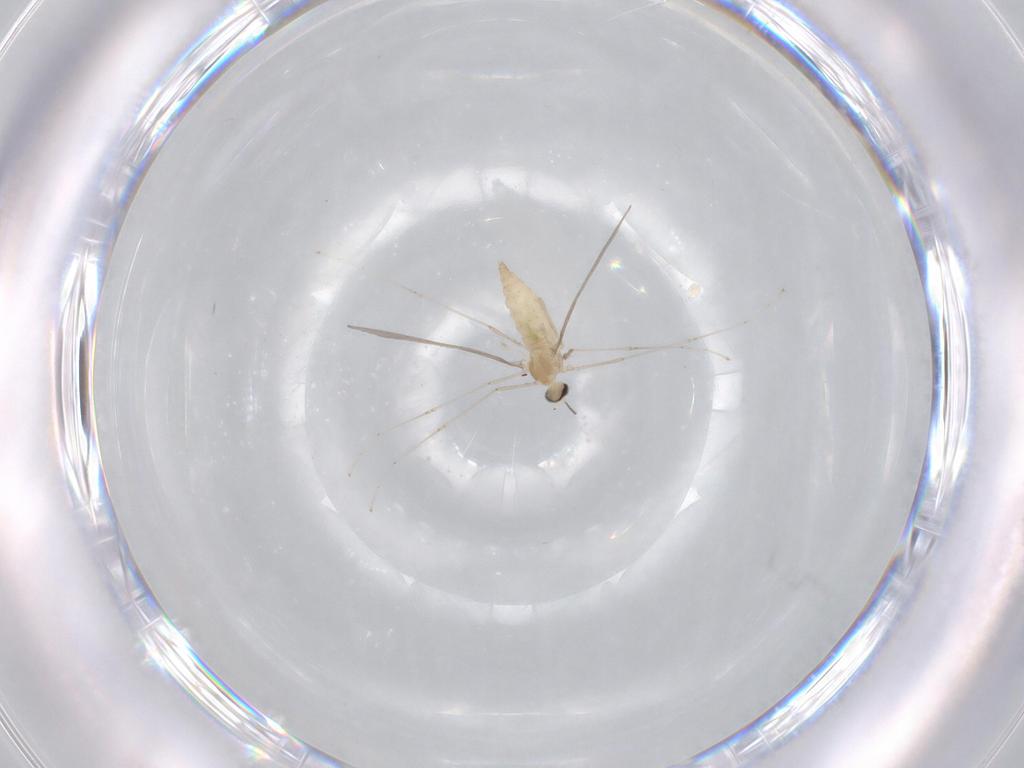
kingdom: Animalia
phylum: Arthropoda
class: Insecta
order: Diptera
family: Cecidomyiidae
